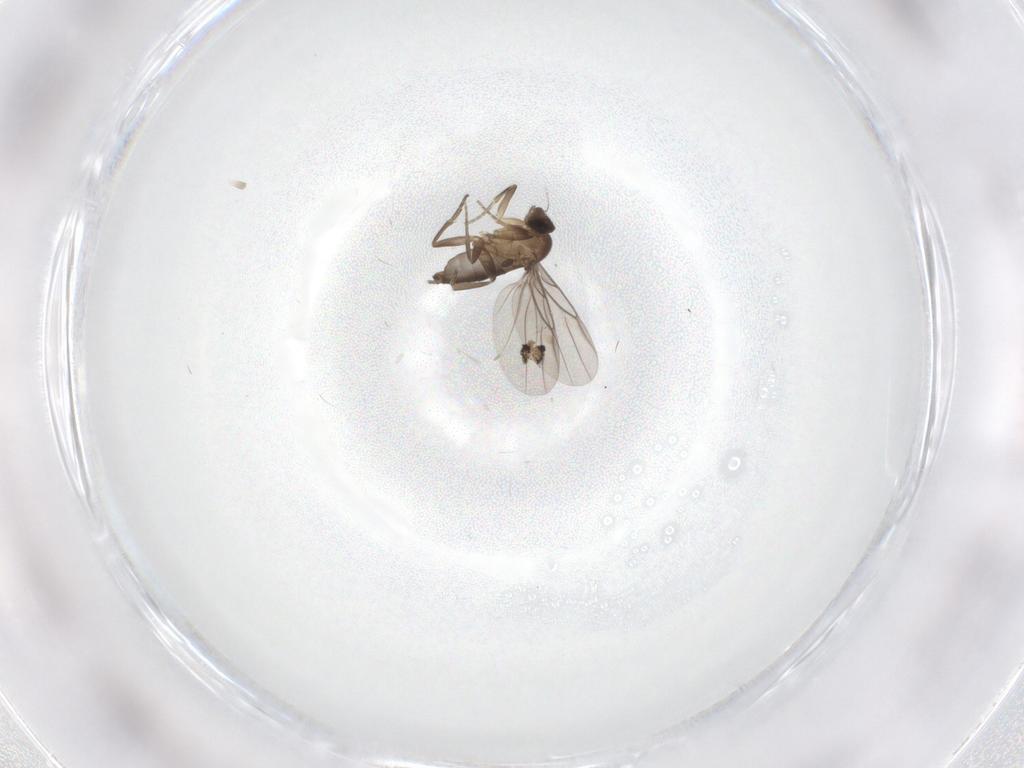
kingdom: Animalia
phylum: Arthropoda
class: Insecta
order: Diptera
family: Phoridae
